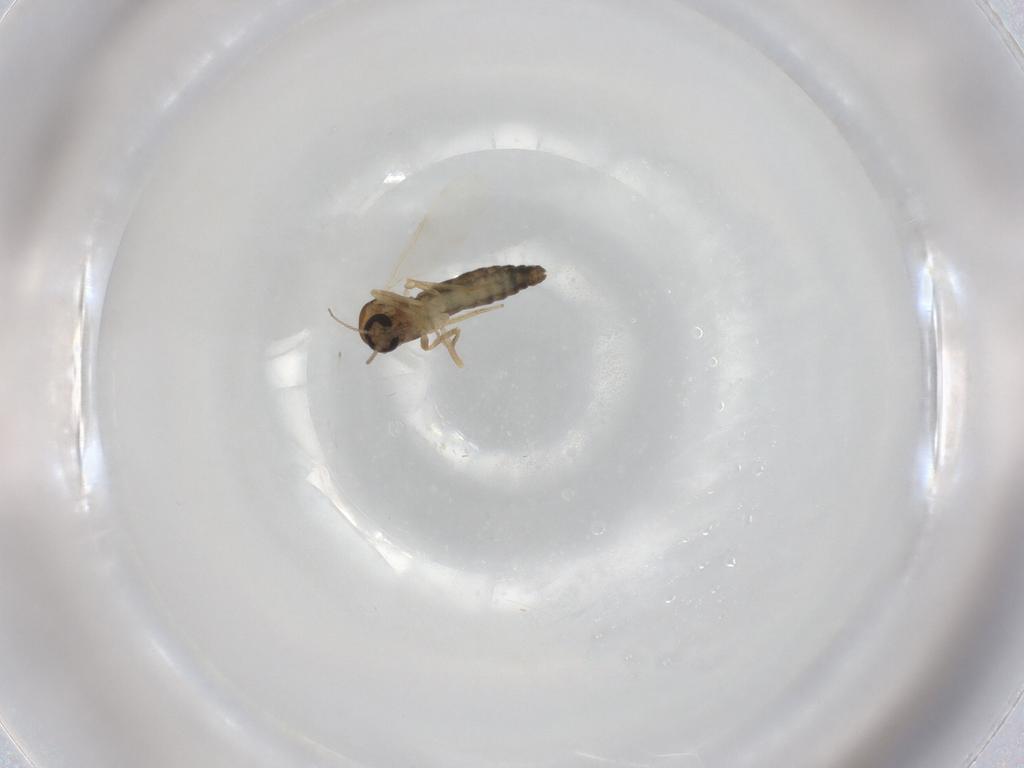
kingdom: Animalia
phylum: Arthropoda
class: Insecta
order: Diptera
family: Ceratopogonidae
